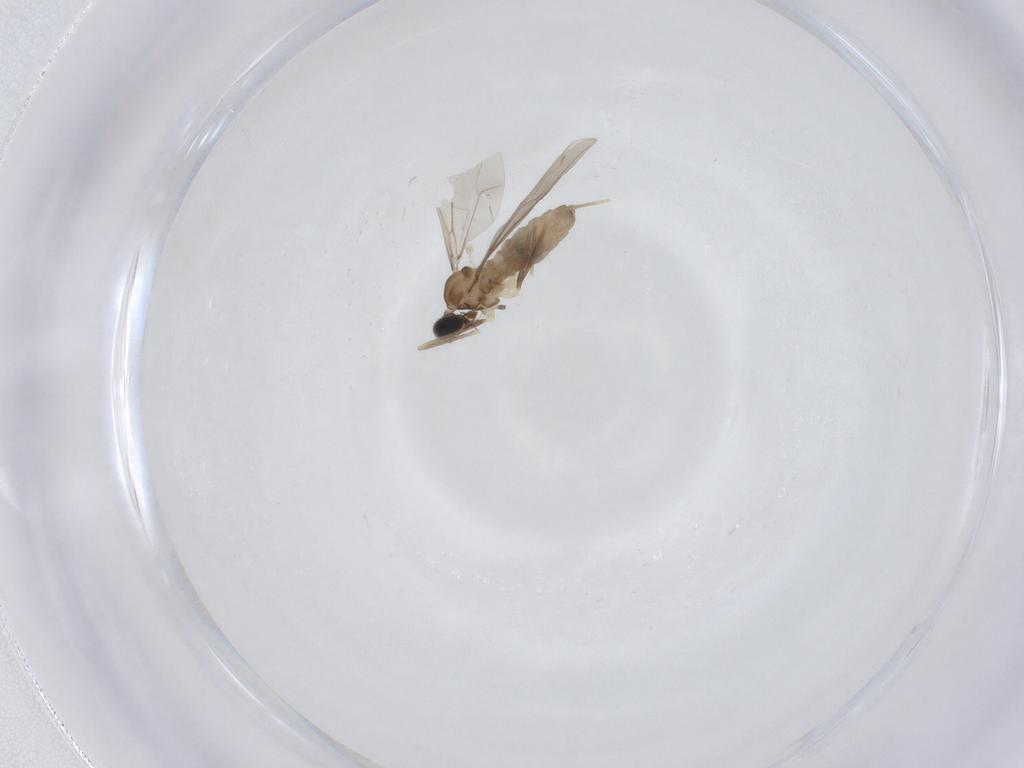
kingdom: Animalia
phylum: Arthropoda
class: Insecta
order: Diptera
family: Cecidomyiidae
